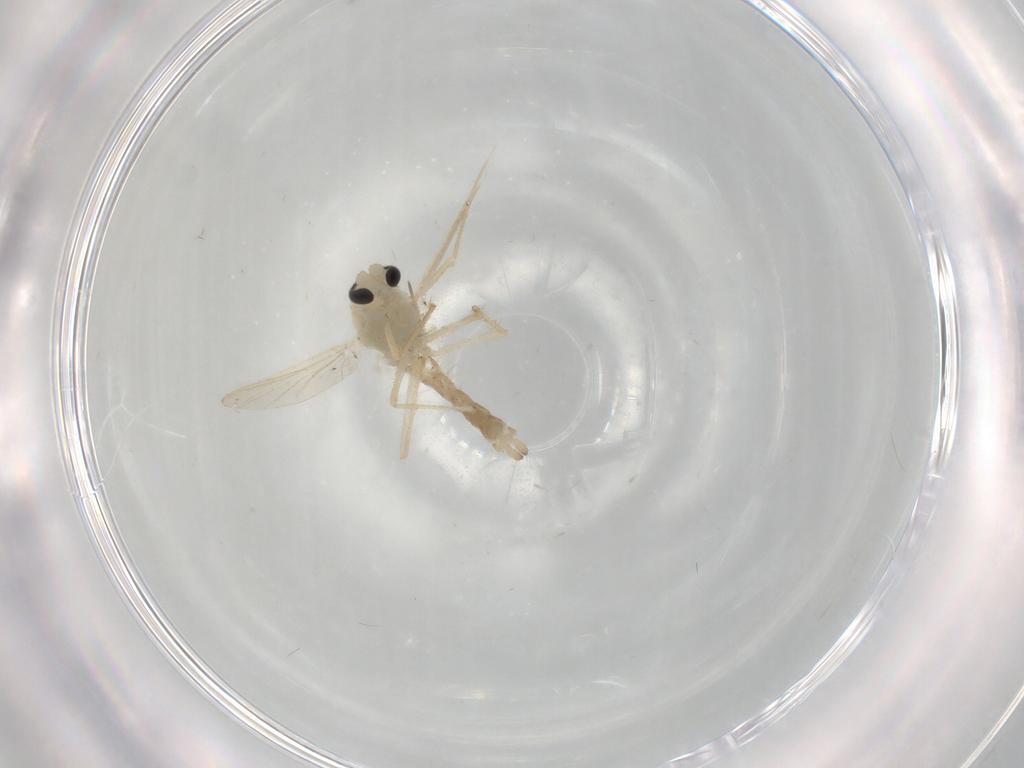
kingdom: Animalia
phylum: Arthropoda
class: Insecta
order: Diptera
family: Chironomidae
